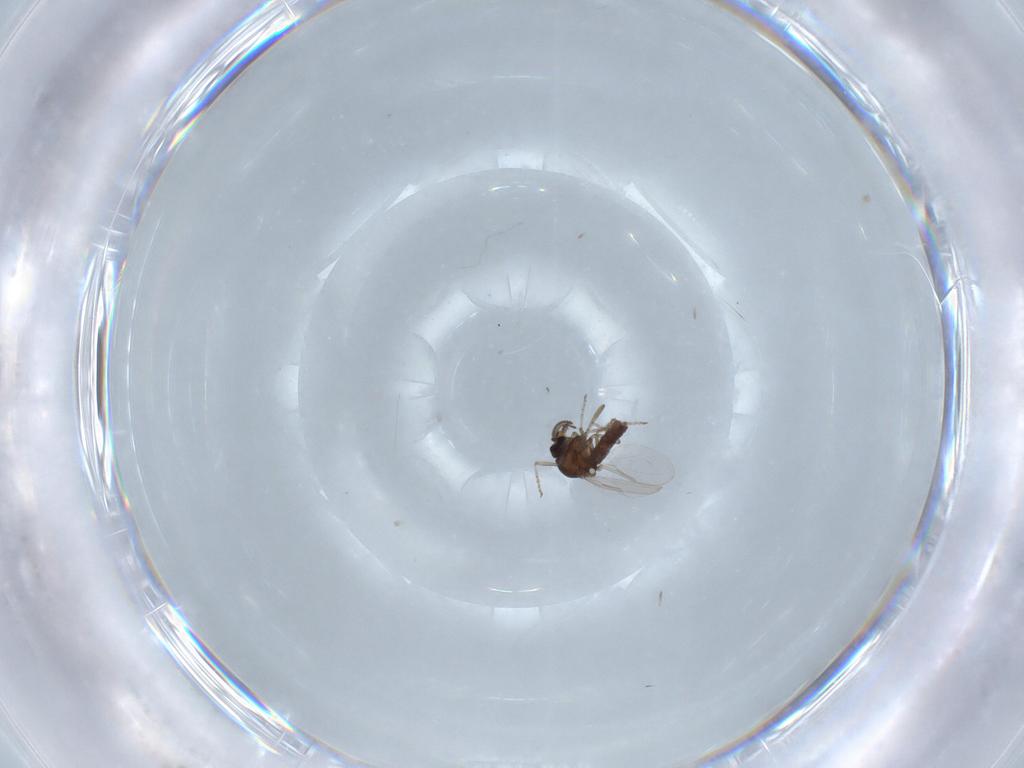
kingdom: Animalia
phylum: Arthropoda
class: Insecta
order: Diptera
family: Ceratopogonidae
